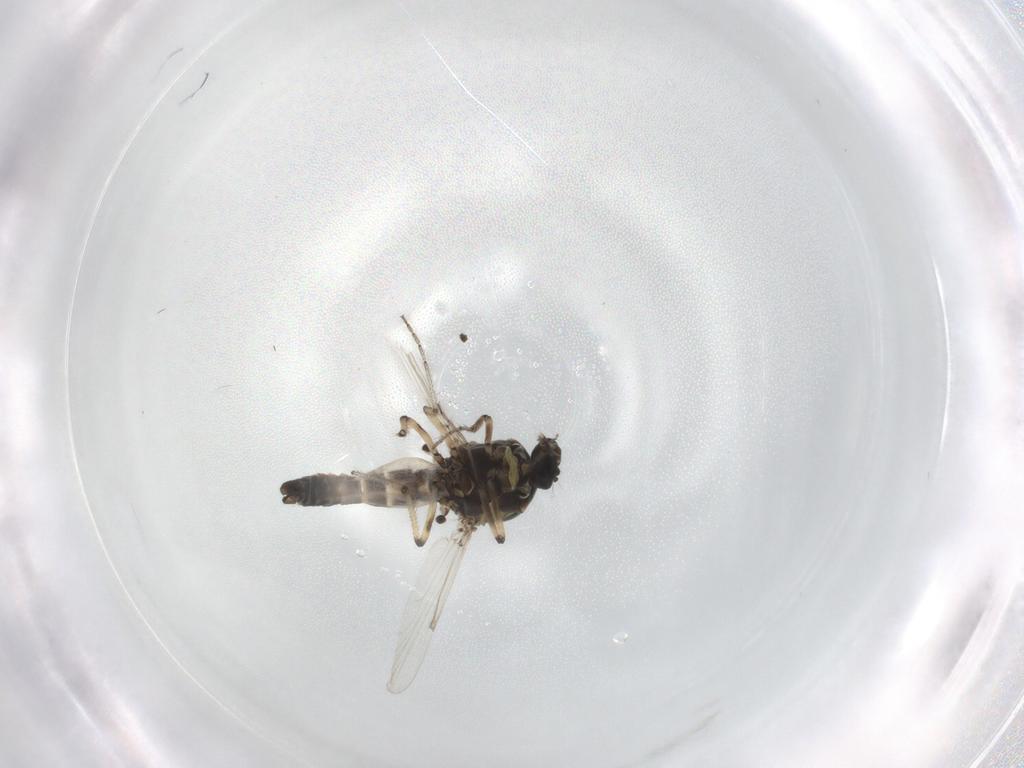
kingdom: Animalia
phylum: Arthropoda
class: Insecta
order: Diptera
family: Ceratopogonidae
